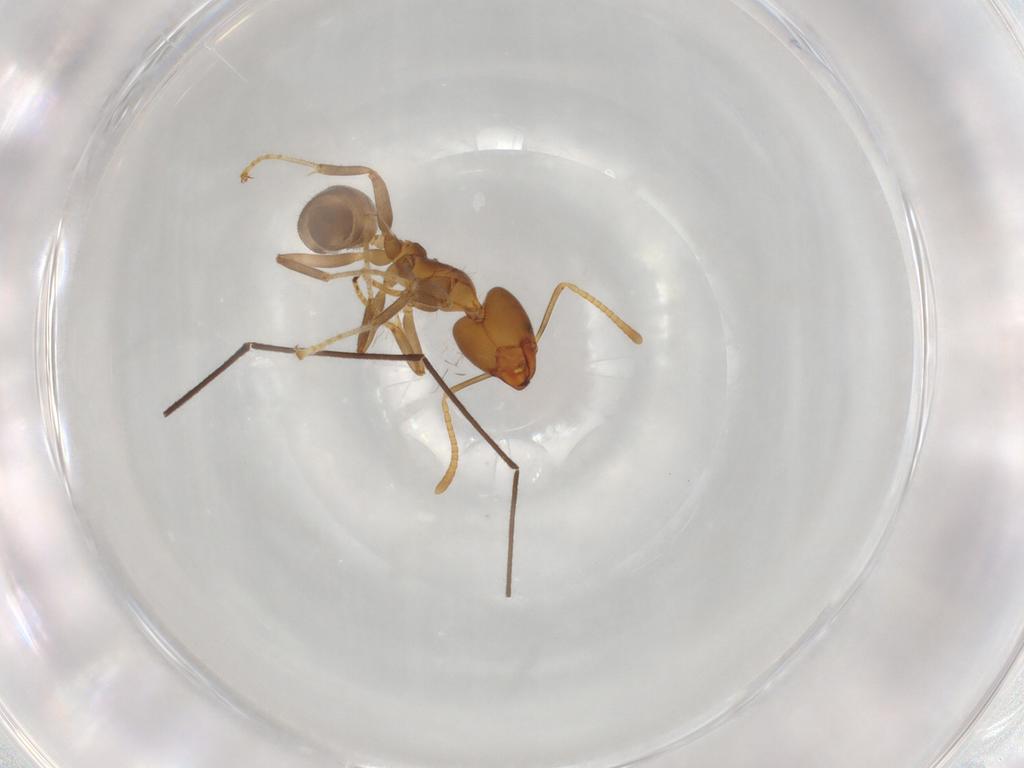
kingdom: Animalia
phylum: Arthropoda
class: Insecta
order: Hymenoptera
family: Formicidae
